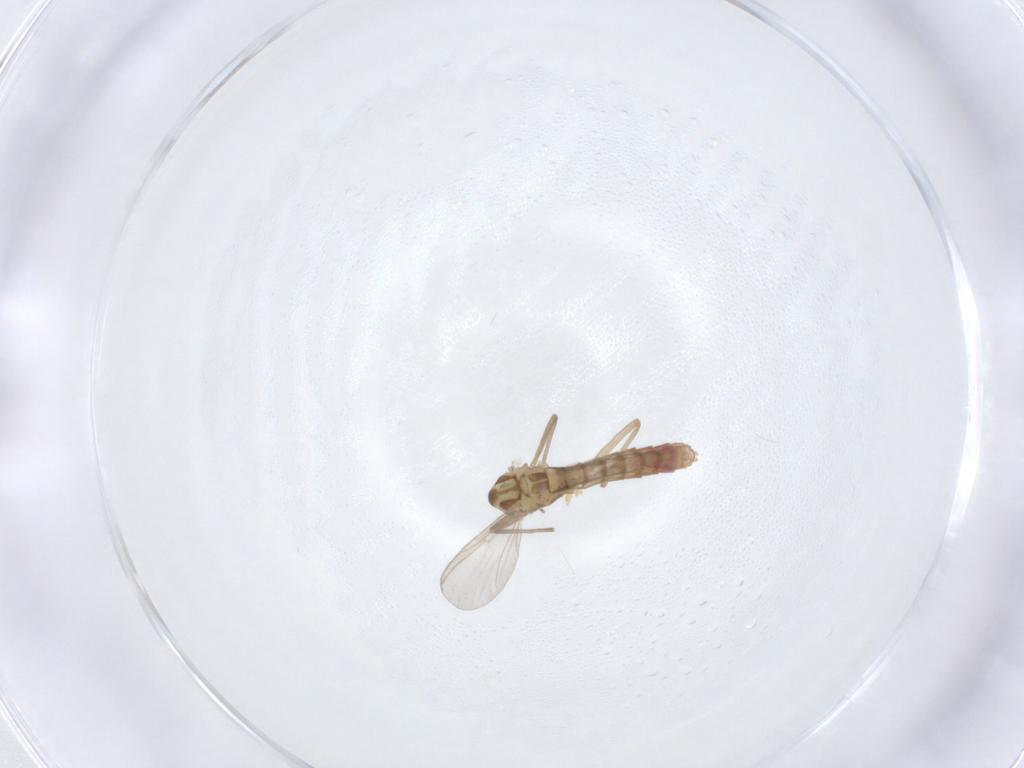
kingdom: Animalia
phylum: Arthropoda
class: Insecta
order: Diptera
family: Chironomidae
